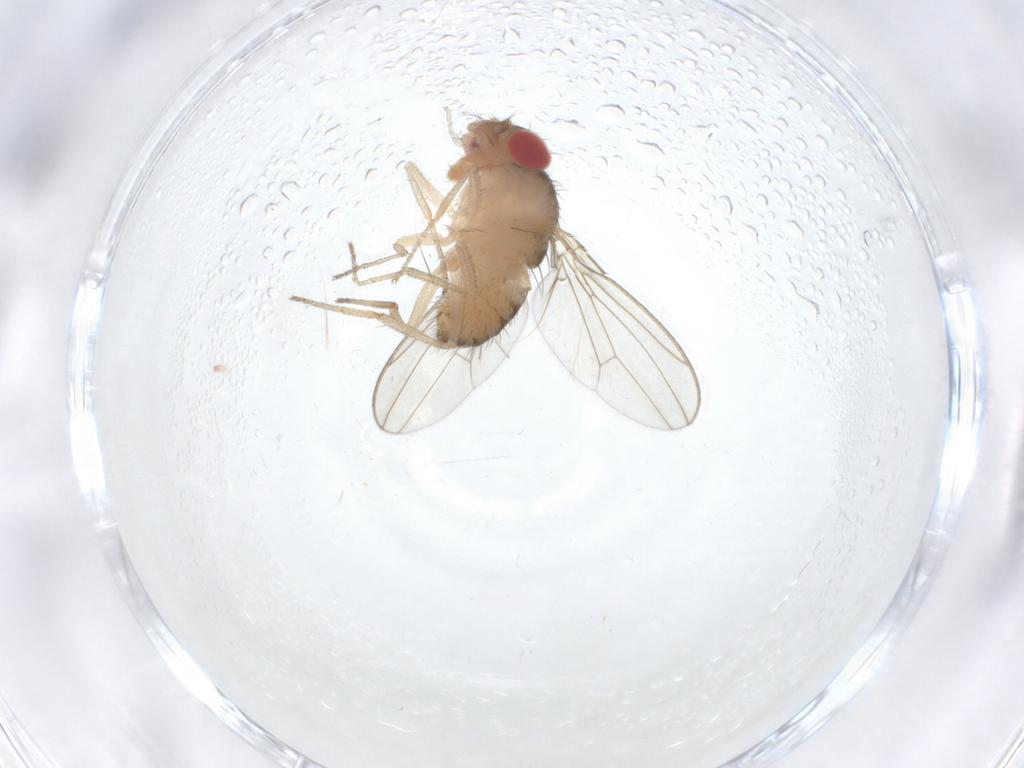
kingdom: Animalia
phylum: Arthropoda
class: Insecta
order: Diptera
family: Drosophilidae
